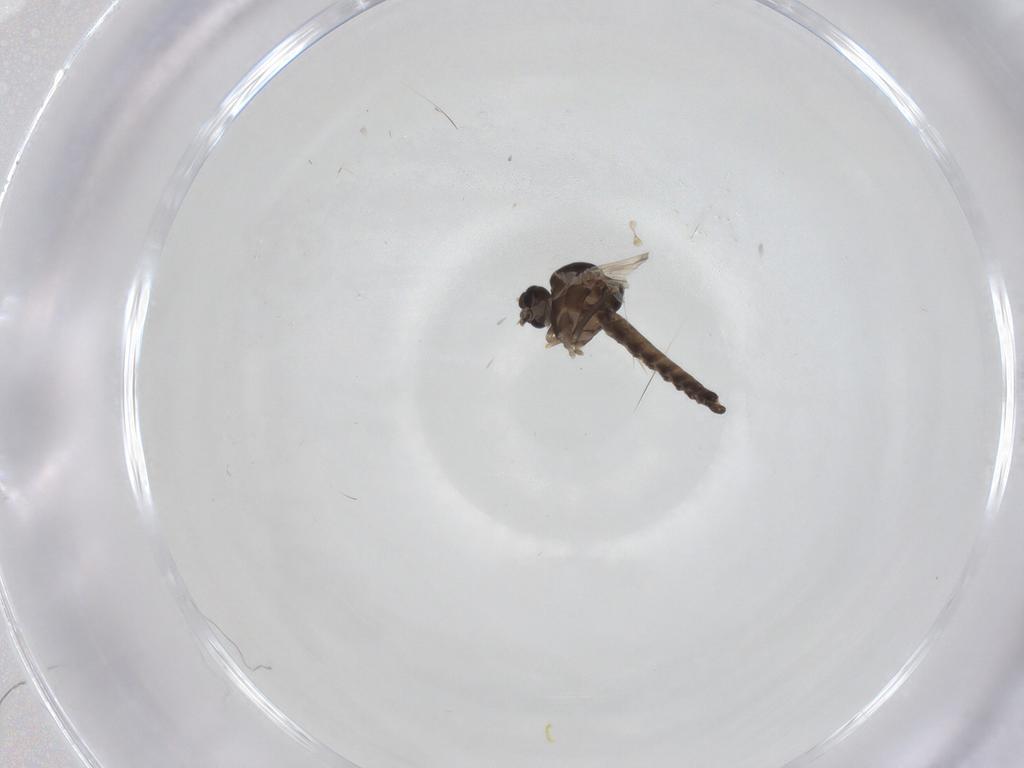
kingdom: Animalia
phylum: Arthropoda
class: Insecta
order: Diptera
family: Ceratopogonidae
